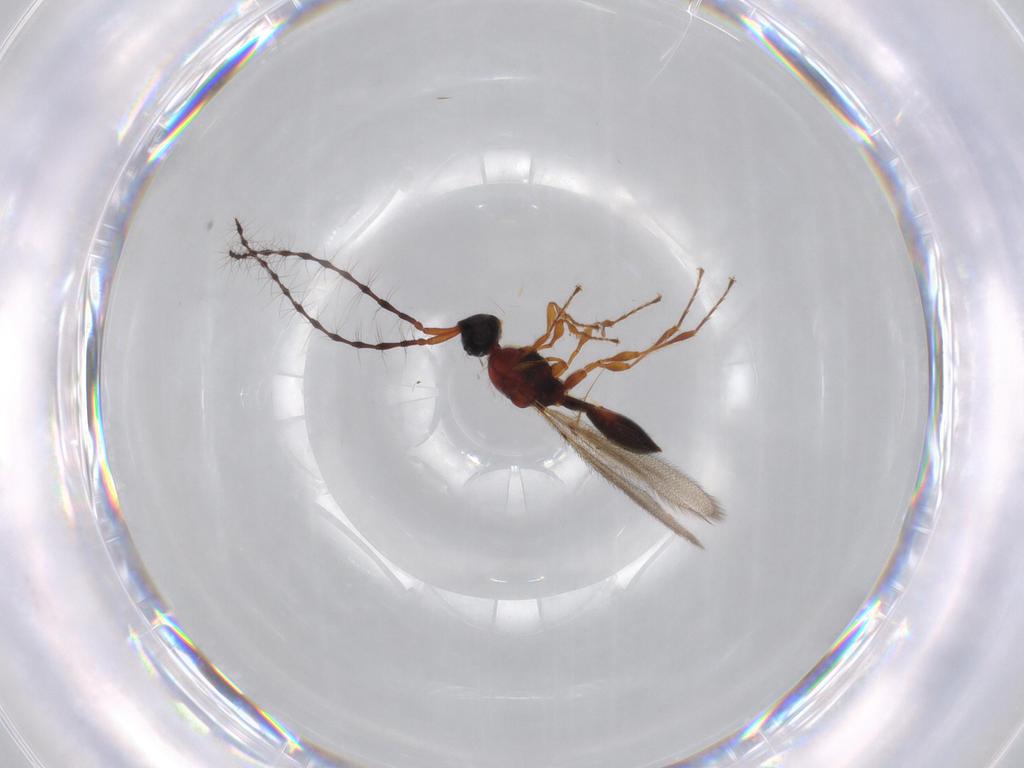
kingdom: Animalia
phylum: Arthropoda
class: Insecta
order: Hymenoptera
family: Diapriidae
